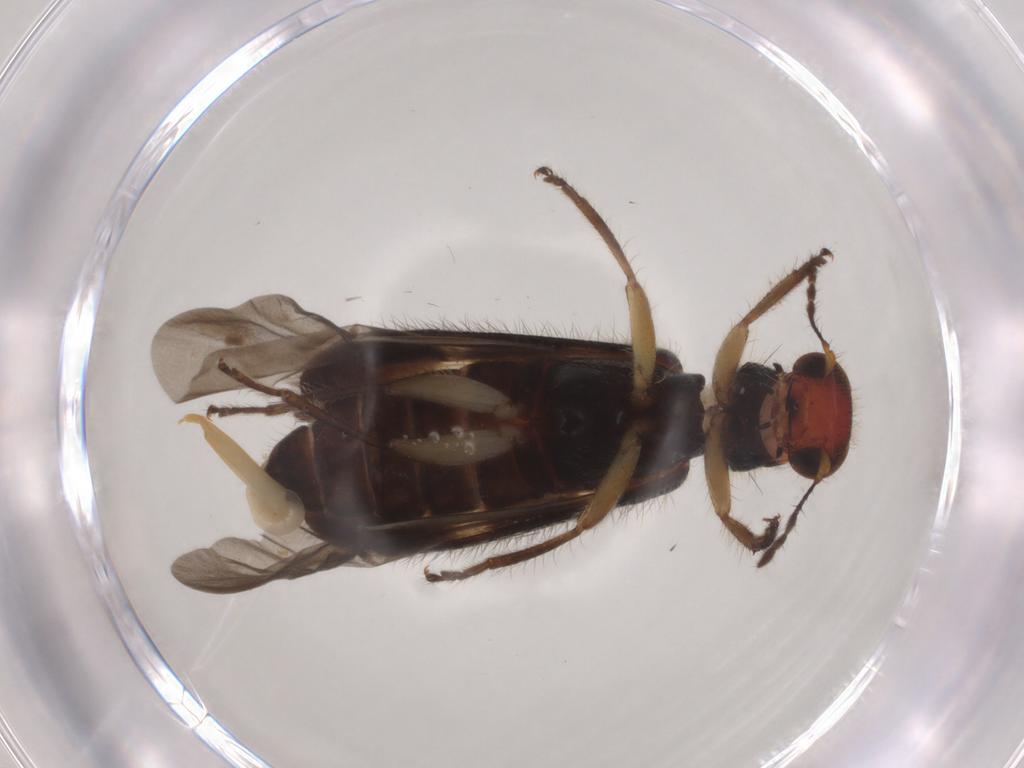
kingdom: Animalia
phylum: Arthropoda
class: Insecta
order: Coleoptera
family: Cleridae
